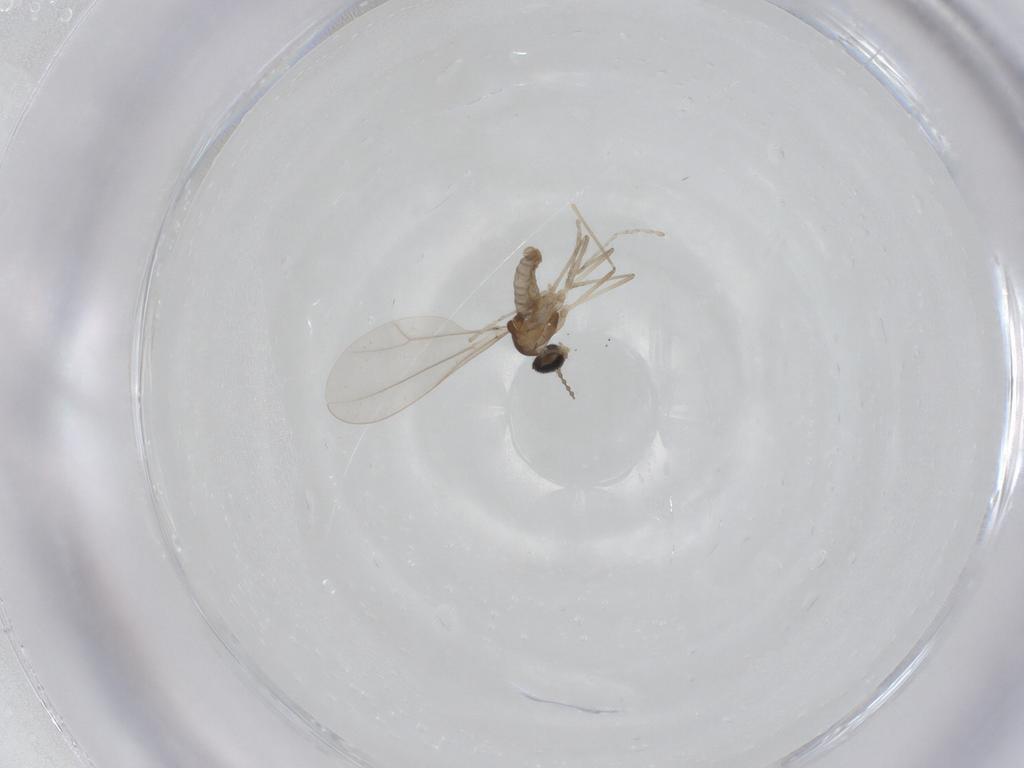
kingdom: Animalia
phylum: Arthropoda
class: Insecta
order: Diptera
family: Cecidomyiidae
